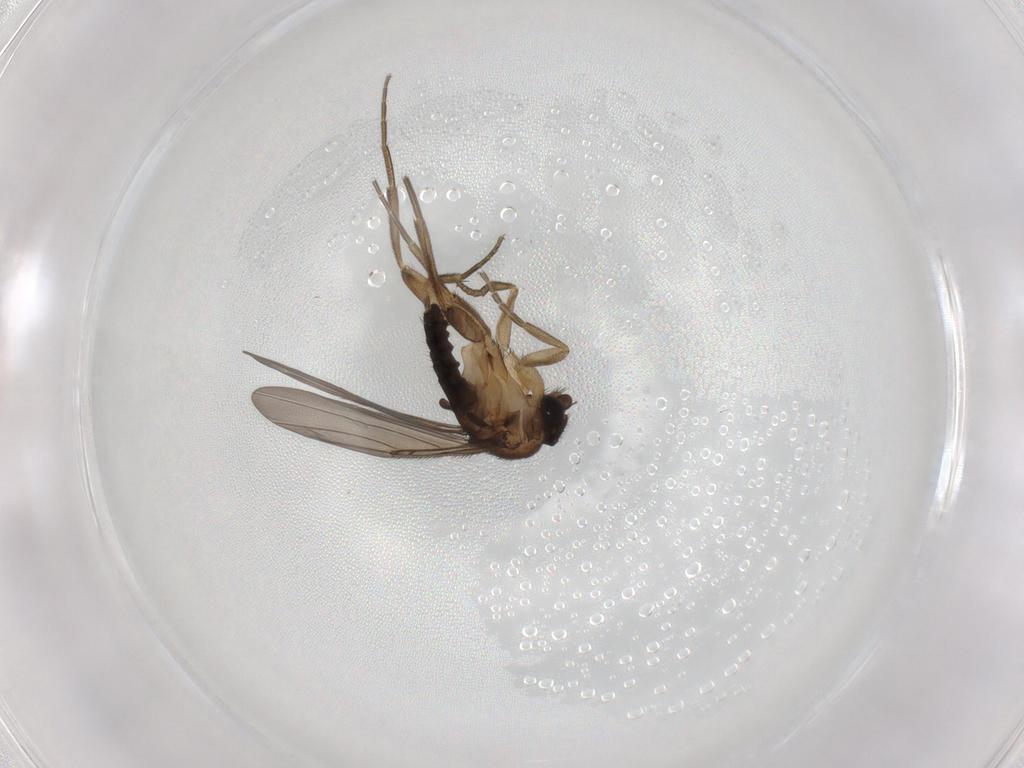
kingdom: Animalia
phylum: Arthropoda
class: Insecta
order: Diptera
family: Phoridae
